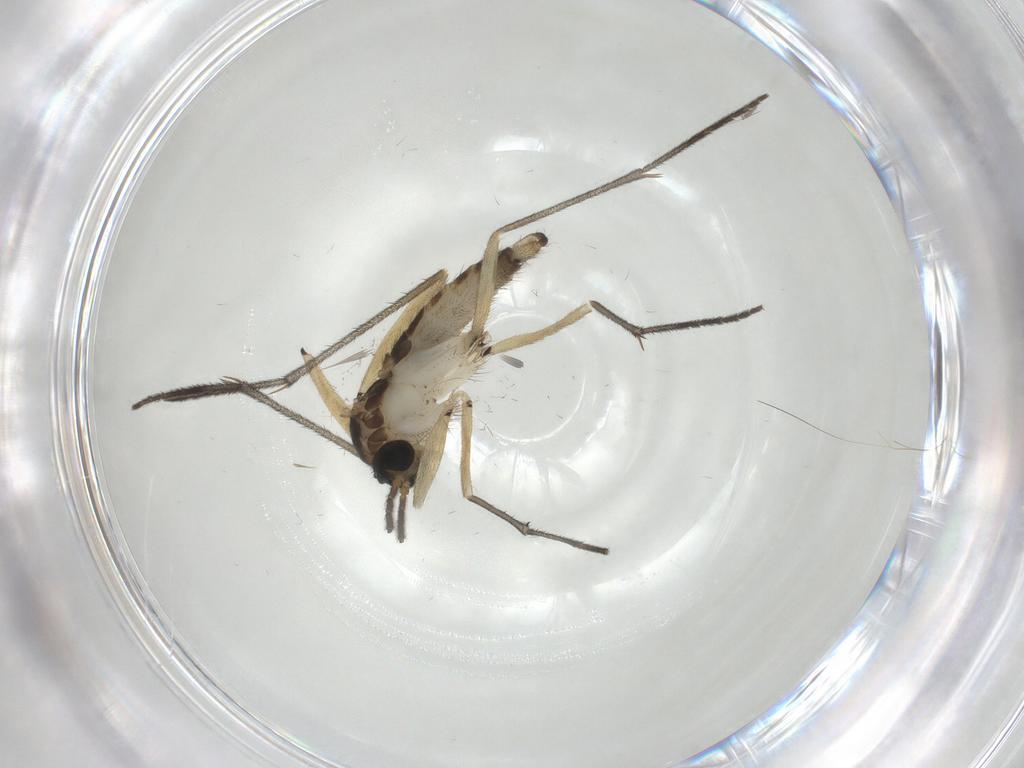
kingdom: Animalia
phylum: Arthropoda
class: Insecta
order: Diptera
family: Sciaridae
